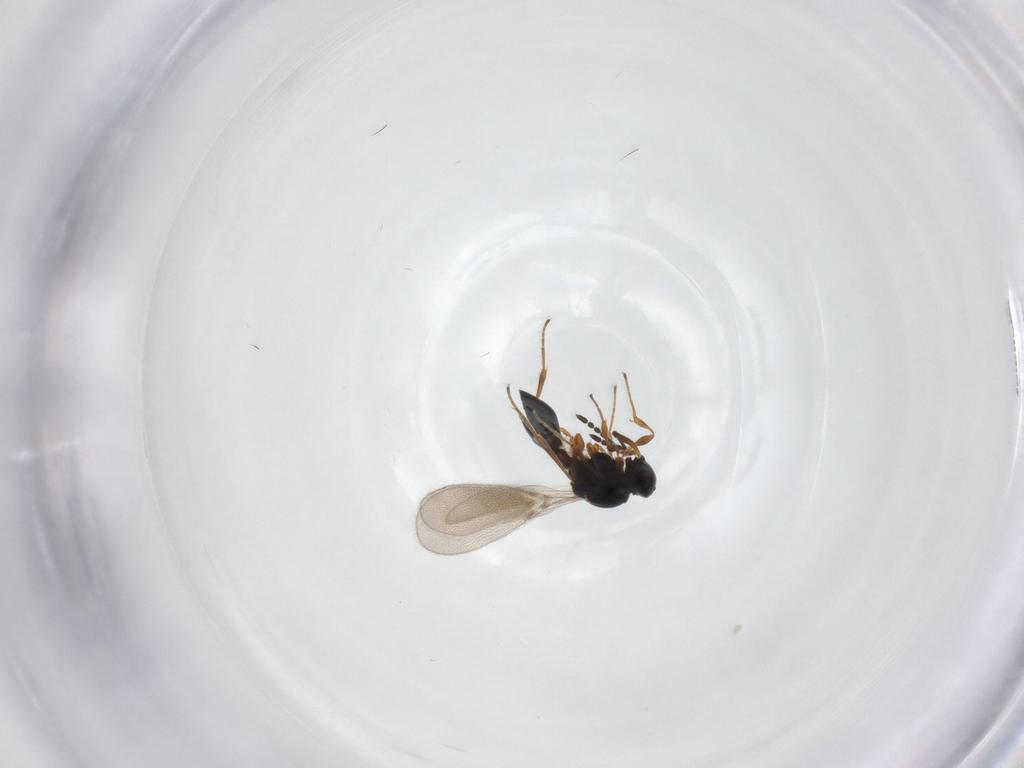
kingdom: Animalia
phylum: Arthropoda
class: Insecta
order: Hymenoptera
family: Platygastridae
